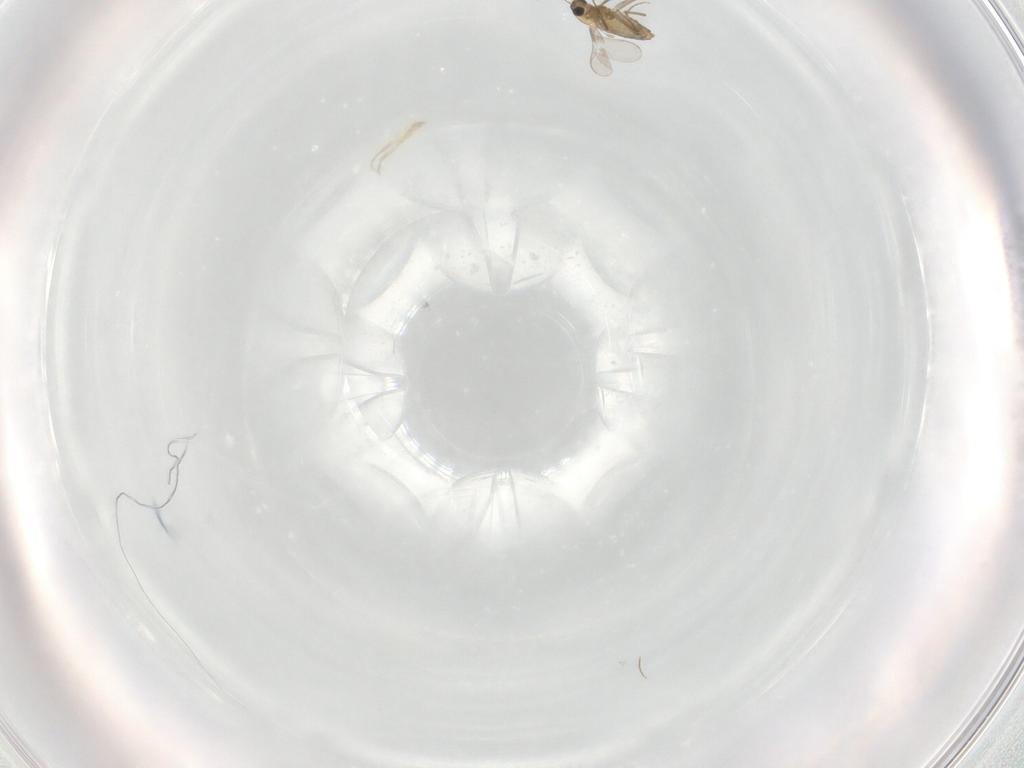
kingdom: Animalia
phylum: Arthropoda
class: Insecta
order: Diptera
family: Chironomidae
